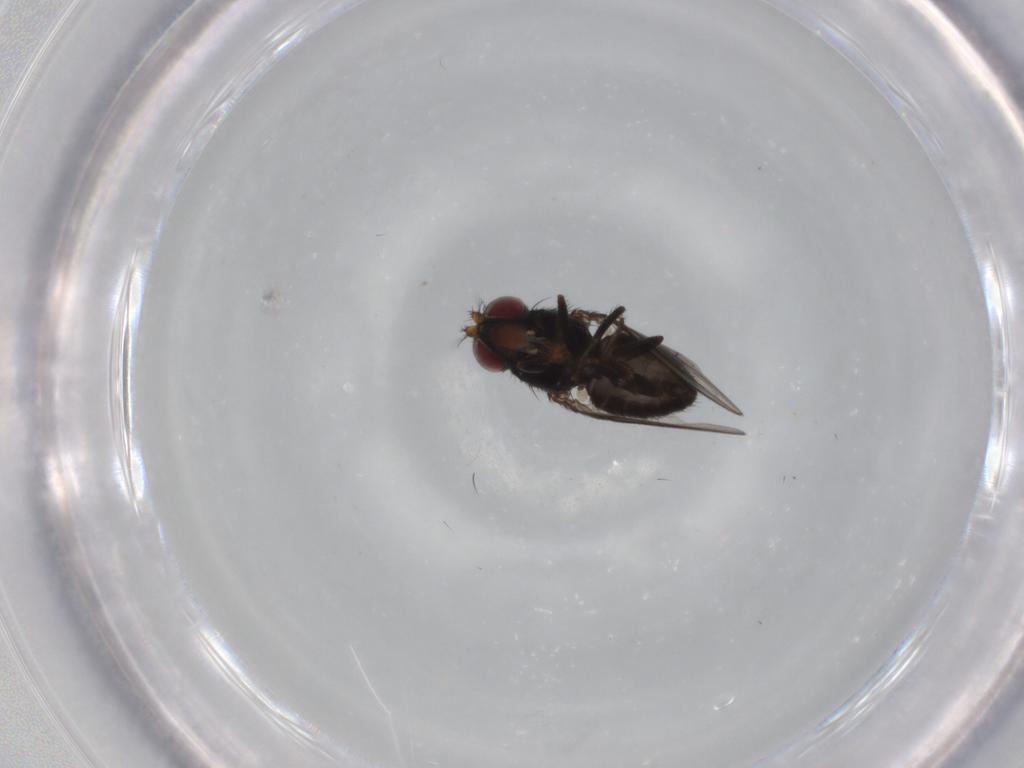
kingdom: Animalia
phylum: Arthropoda
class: Insecta
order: Diptera
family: Ephydridae
